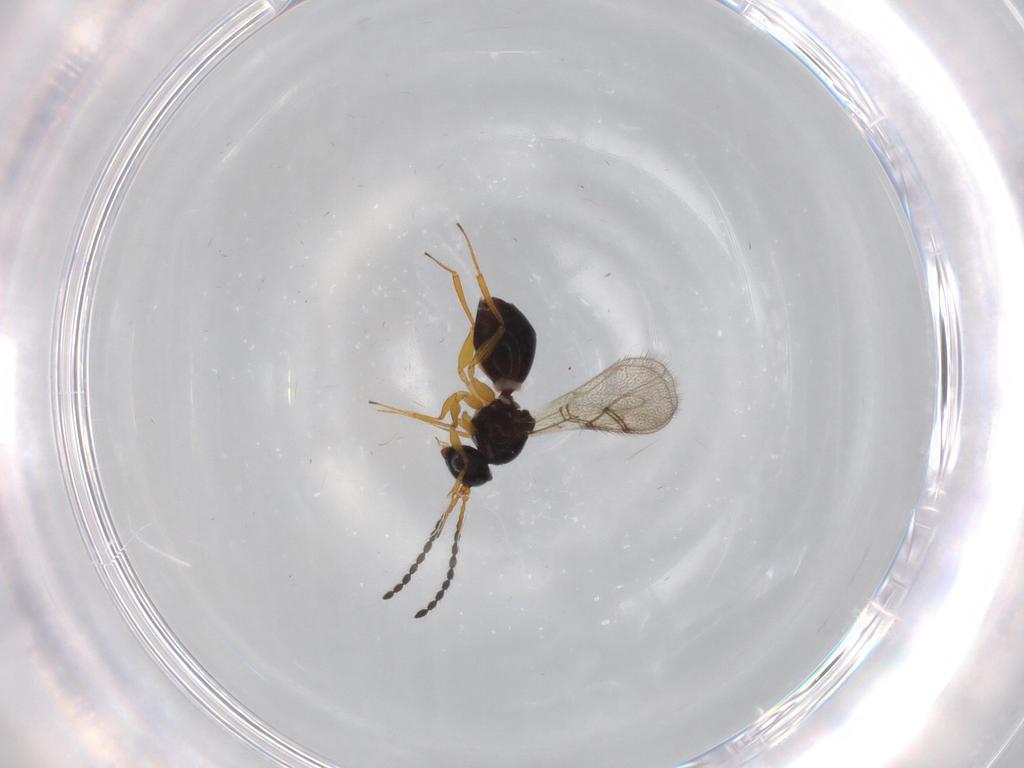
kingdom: Animalia
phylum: Arthropoda
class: Insecta
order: Hymenoptera
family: Figitidae
